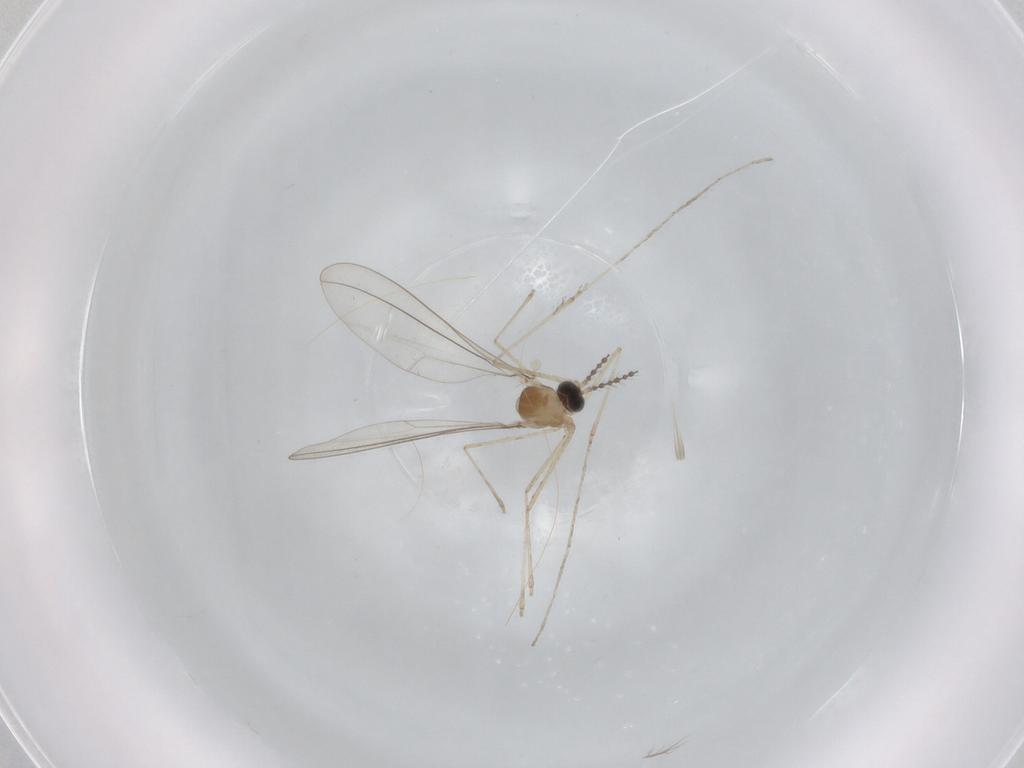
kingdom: Animalia
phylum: Arthropoda
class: Insecta
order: Diptera
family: Cecidomyiidae
